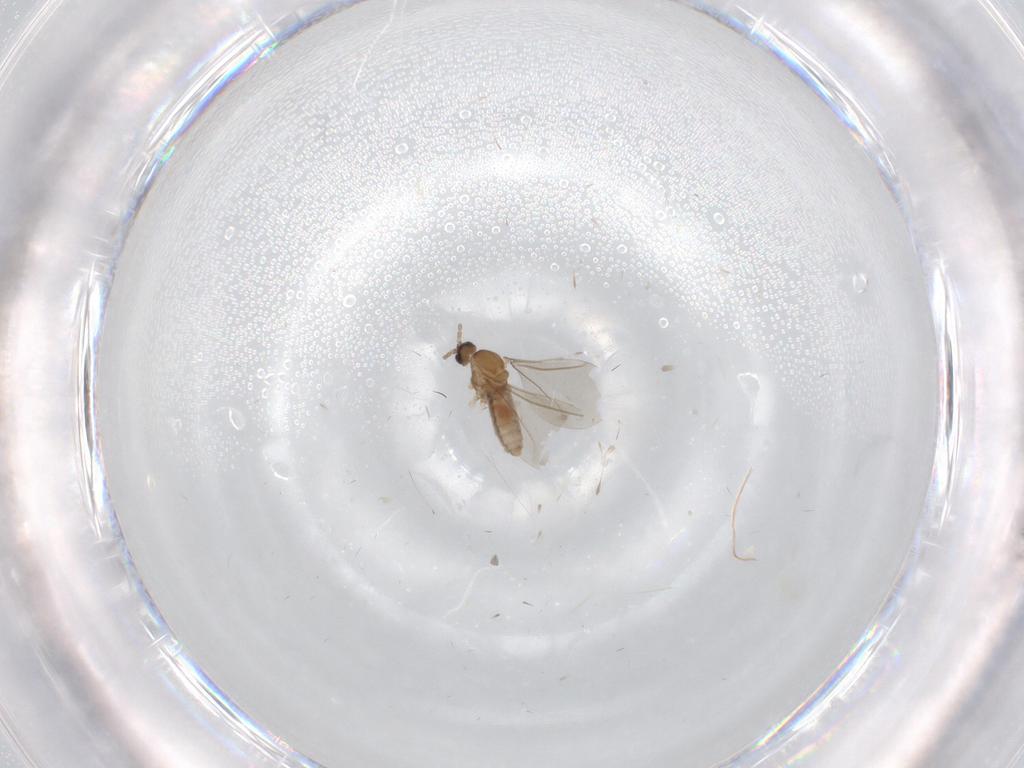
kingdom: Animalia
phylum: Arthropoda
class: Insecta
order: Diptera
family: Cecidomyiidae
